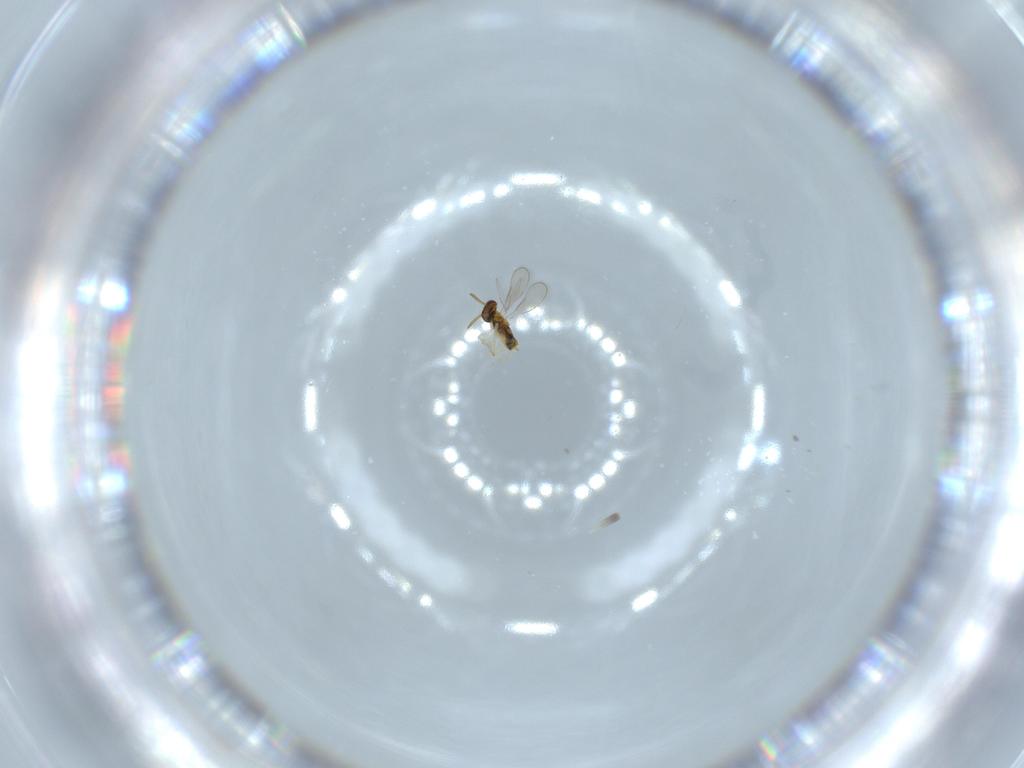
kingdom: Animalia
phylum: Arthropoda
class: Insecta
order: Hymenoptera
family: Aphelinidae
